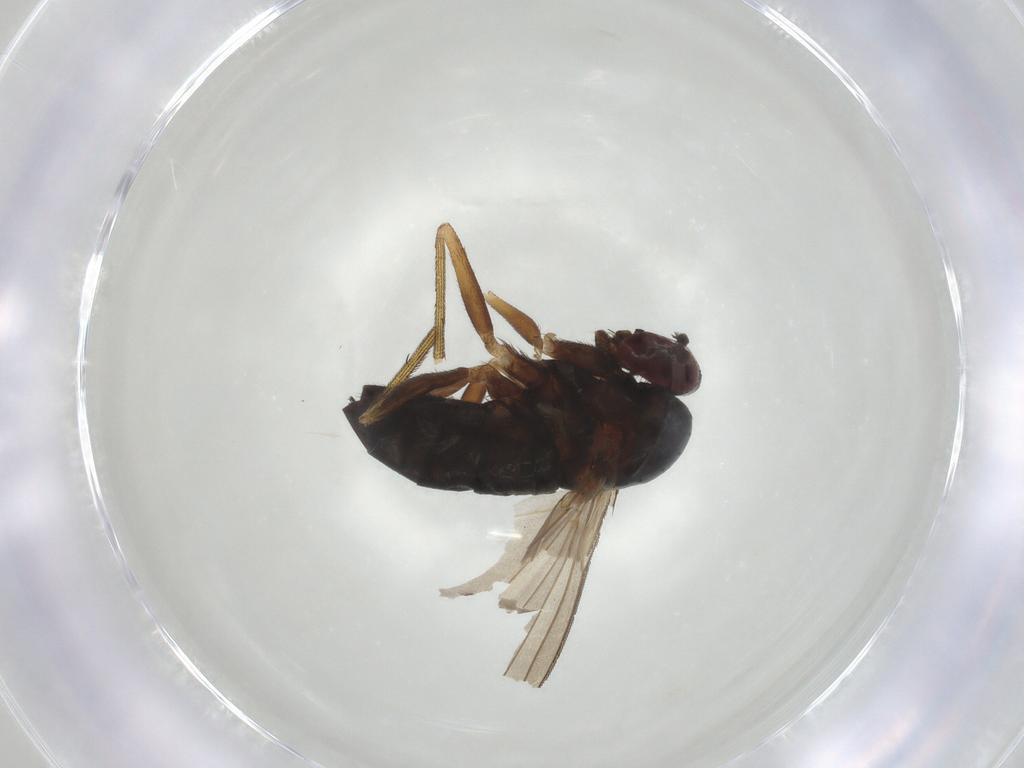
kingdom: Animalia
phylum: Arthropoda
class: Insecta
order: Diptera
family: Dolichopodidae
